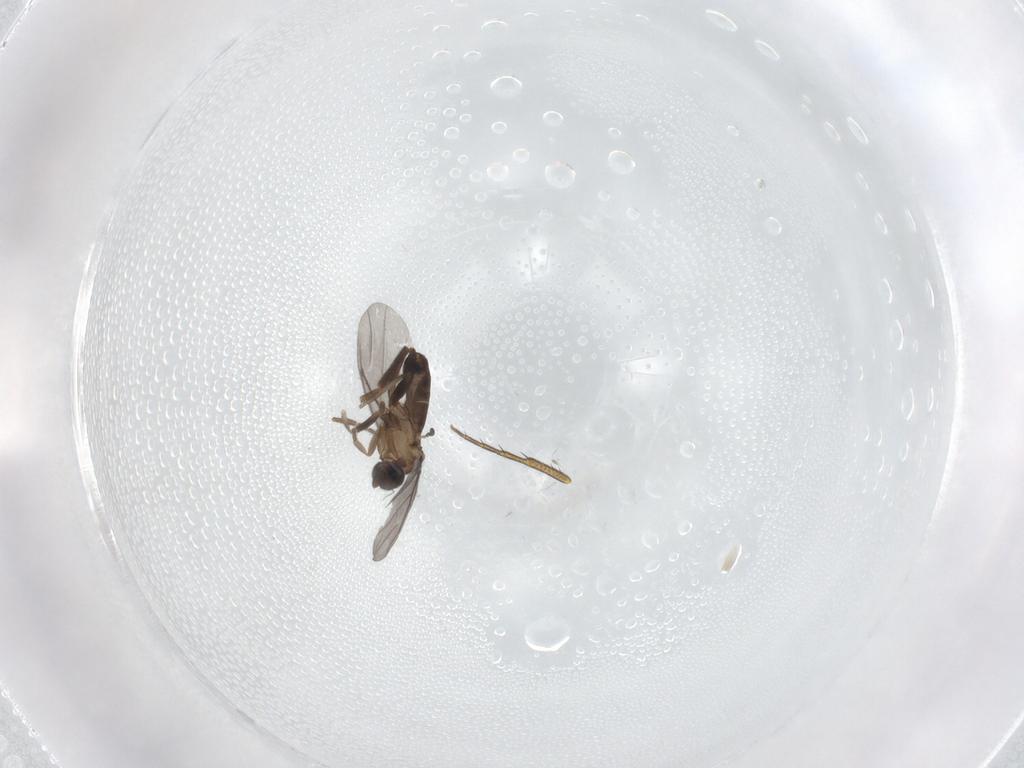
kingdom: Animalia
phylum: Arthropoda
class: Insecta
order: Diptera
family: Phoridae
